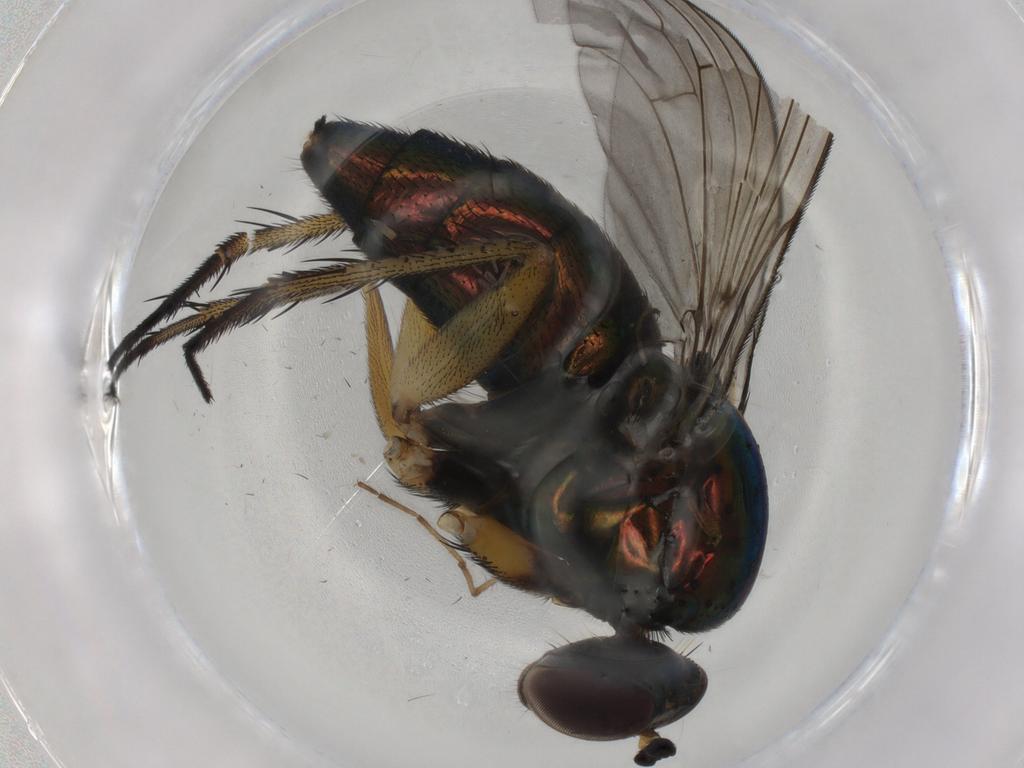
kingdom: Animalia
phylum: Arthropoda
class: Insecta
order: Diptera
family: Dolichopodidae
